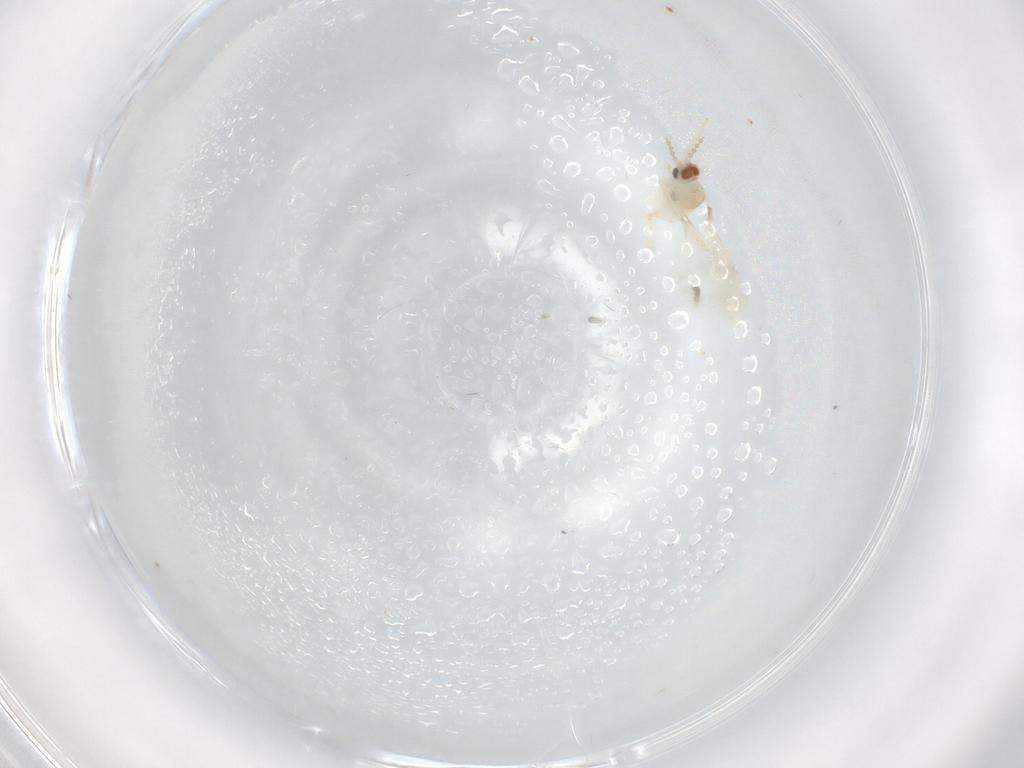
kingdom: Animalia
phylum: Arthropoda
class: Insecta
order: Diptera
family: Cecidomyiidae
